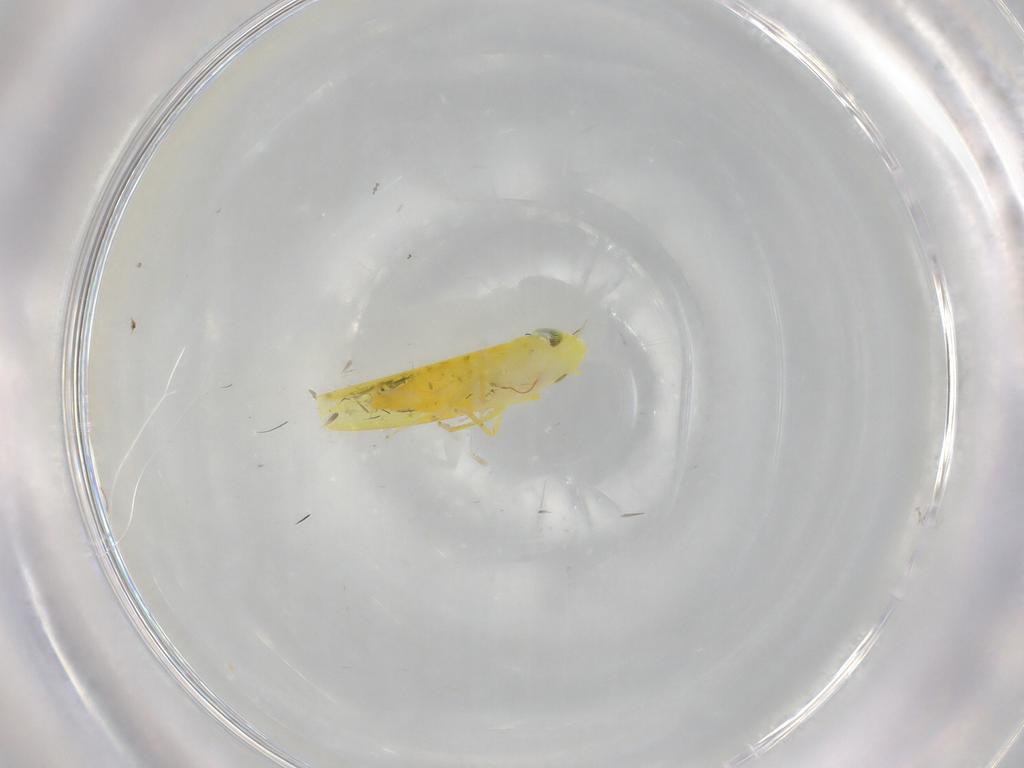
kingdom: Animalia
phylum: Arthropoda
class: Insecta
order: Hemiptera
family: Cicadellidae
